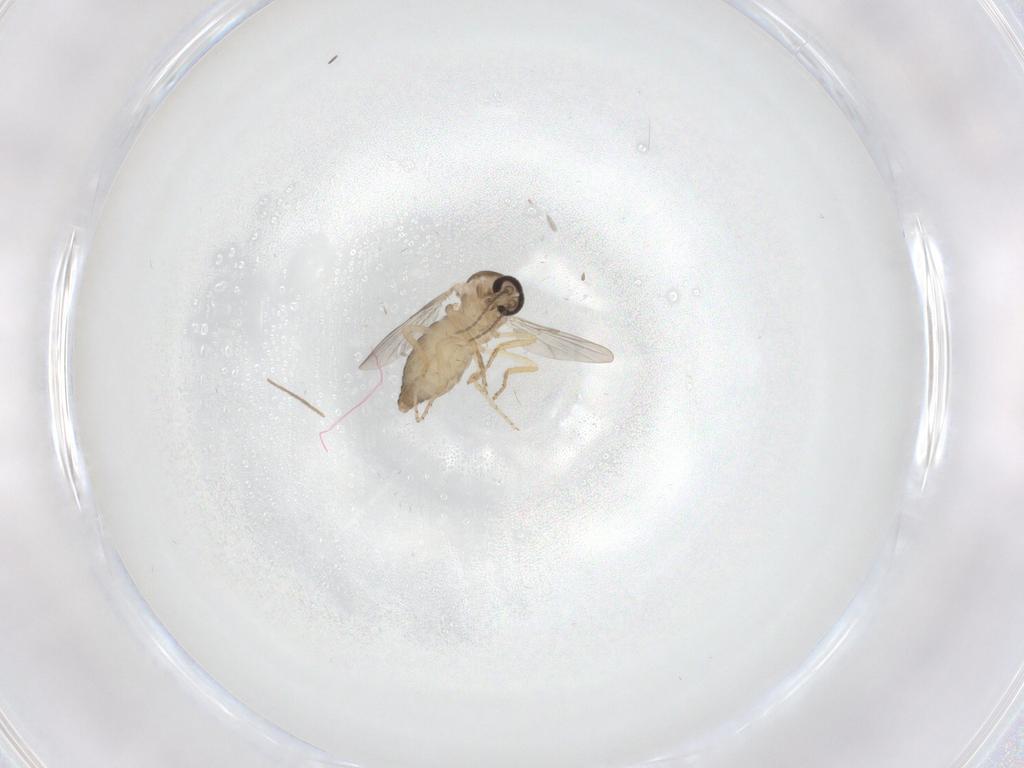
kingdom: Animalia
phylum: Arthropoda
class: Insecta
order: Diptera
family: Ceratopogonidae
